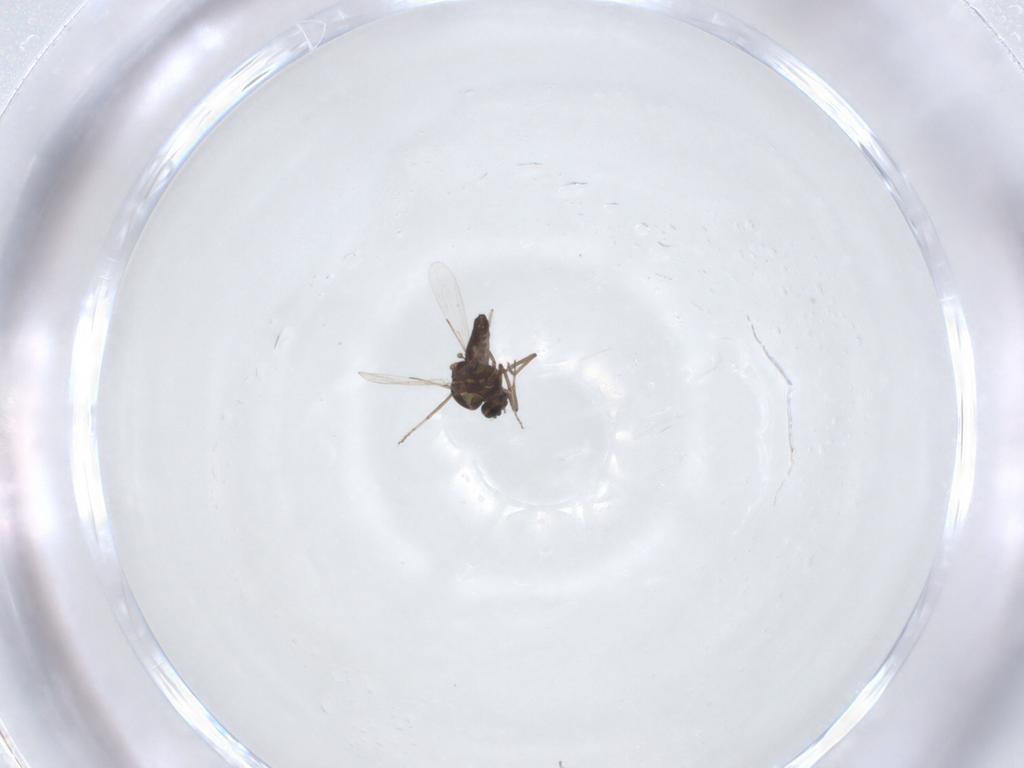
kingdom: Animalia
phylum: Arthropoda
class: Insecta
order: Diptera
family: Ceratopogonidae
